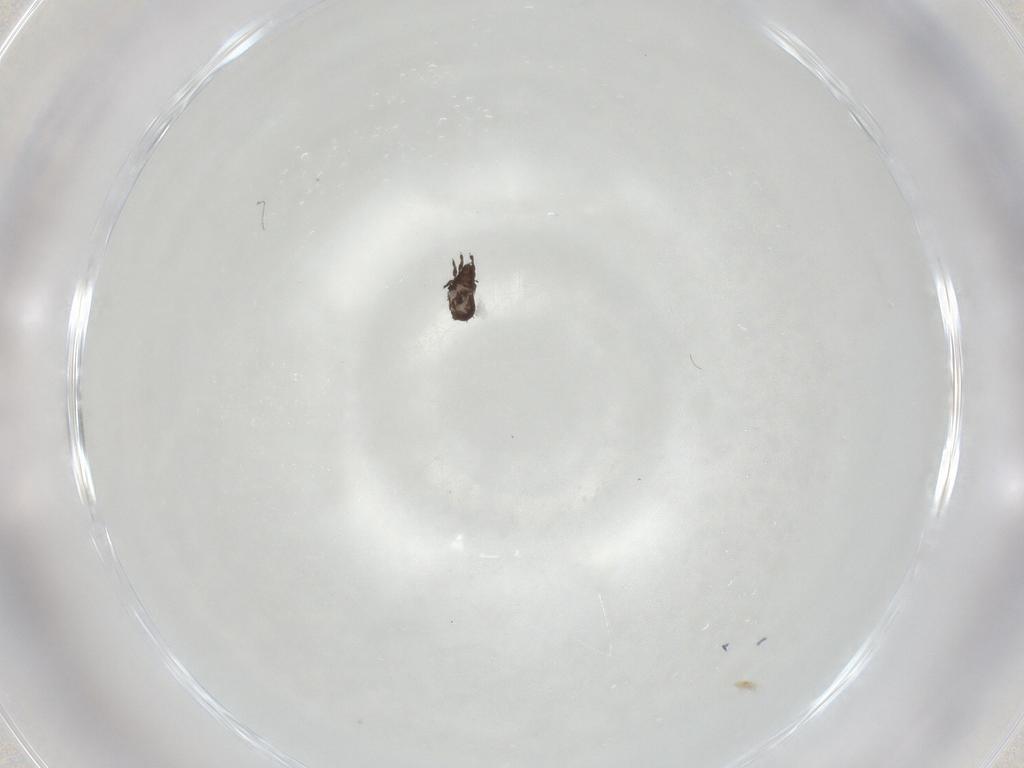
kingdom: Animalia
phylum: Arthropoda
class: Arachnida
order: Sarcoptiformes
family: Cymbaeremaeidae
